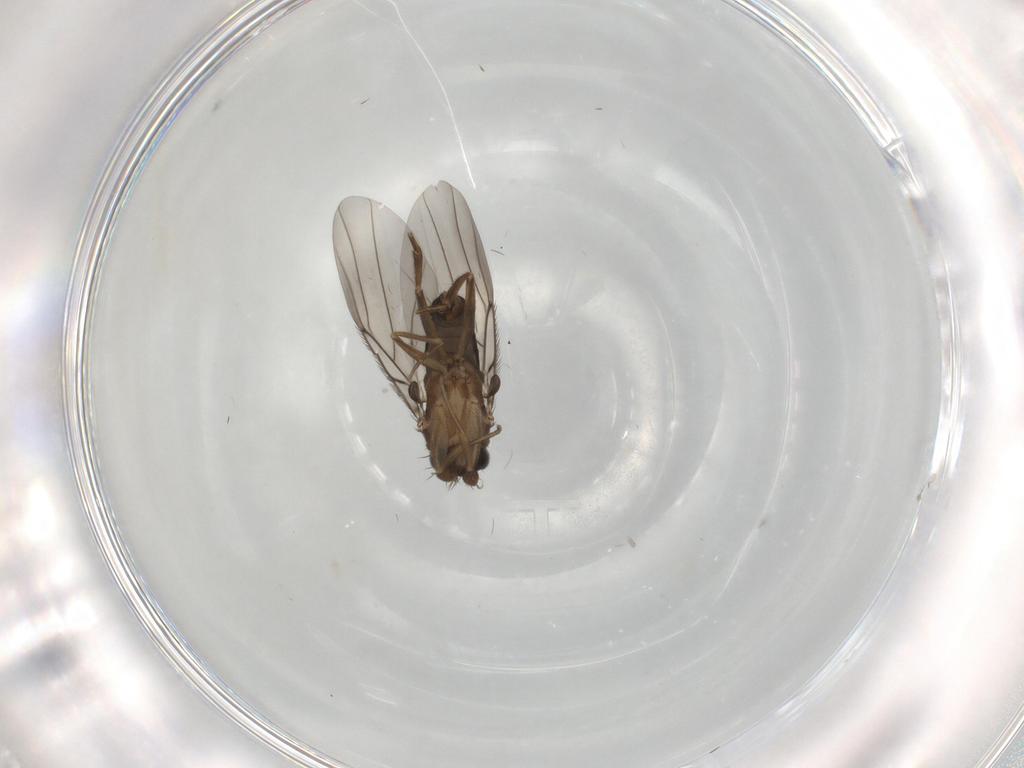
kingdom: Animalia
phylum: Arthropoda
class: Insecta
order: Diptera
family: Phoridae
